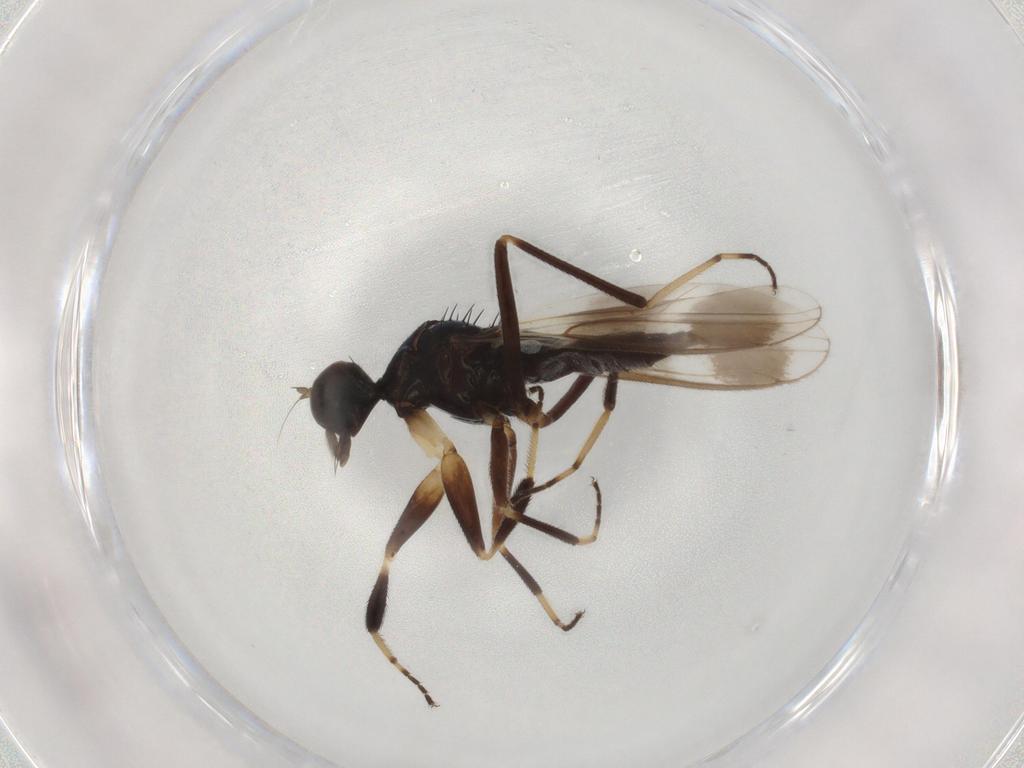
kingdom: Animalia
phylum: Arthropoda
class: Insecta
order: Diptera
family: Hybotidae
